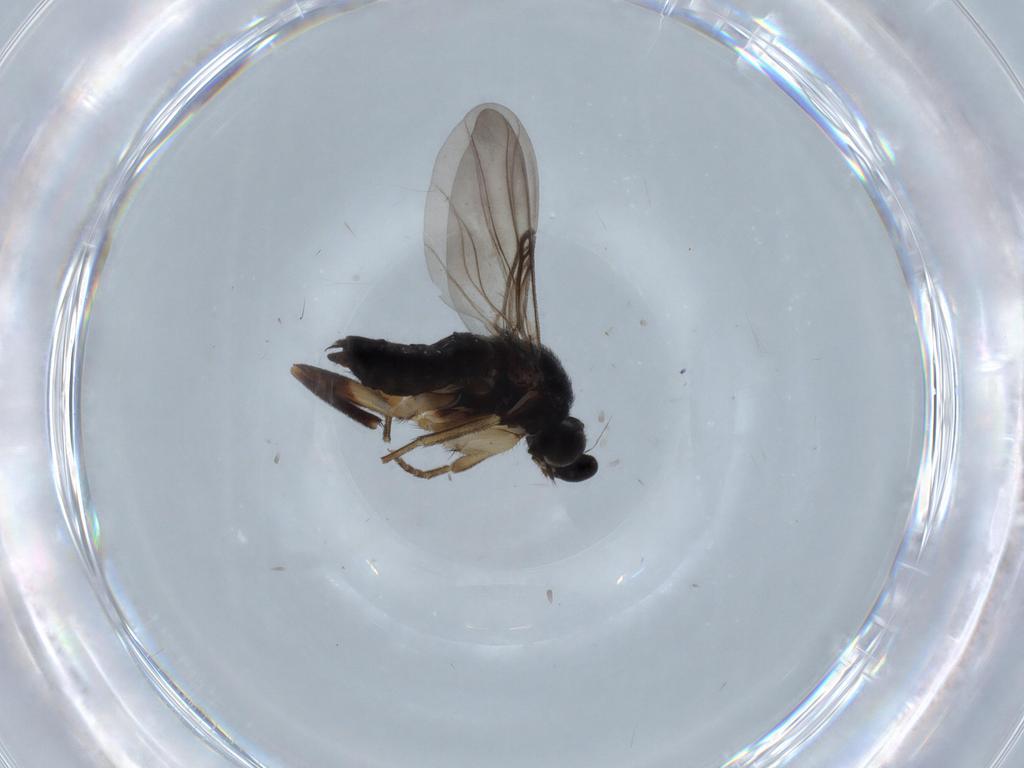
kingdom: Animalia
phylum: Arthropoda
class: Insecta
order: Diptera
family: Phoridae
